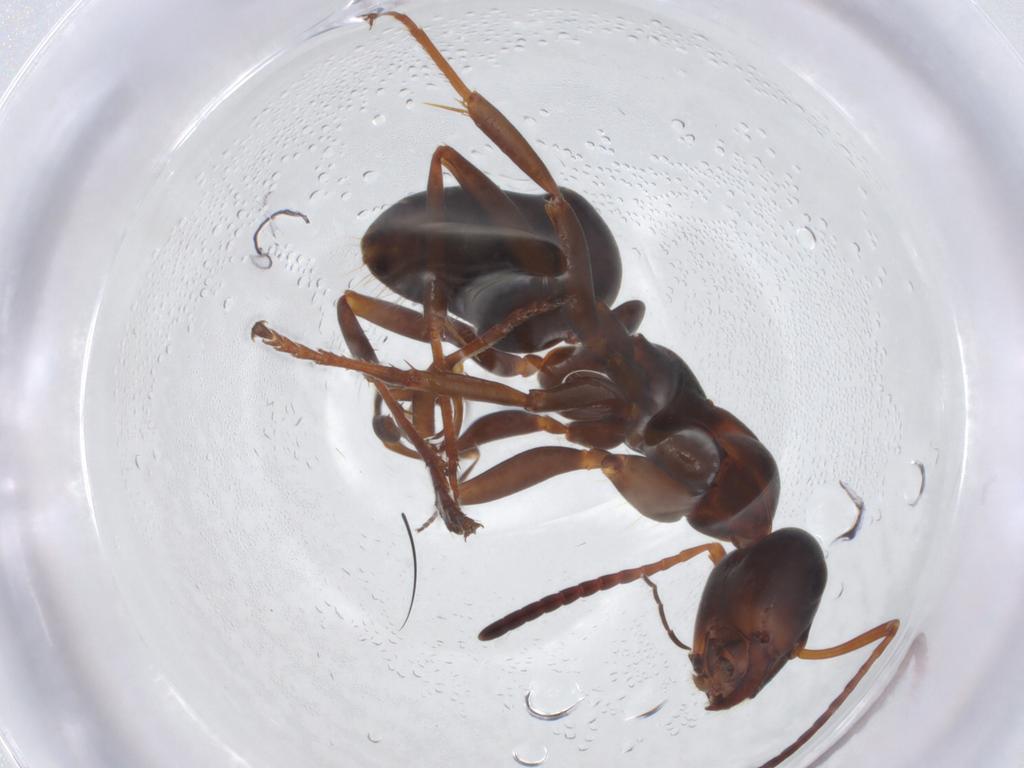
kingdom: Animalia
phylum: Arthropoda
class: Insecta
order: Hymenoptera
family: Formicidae
